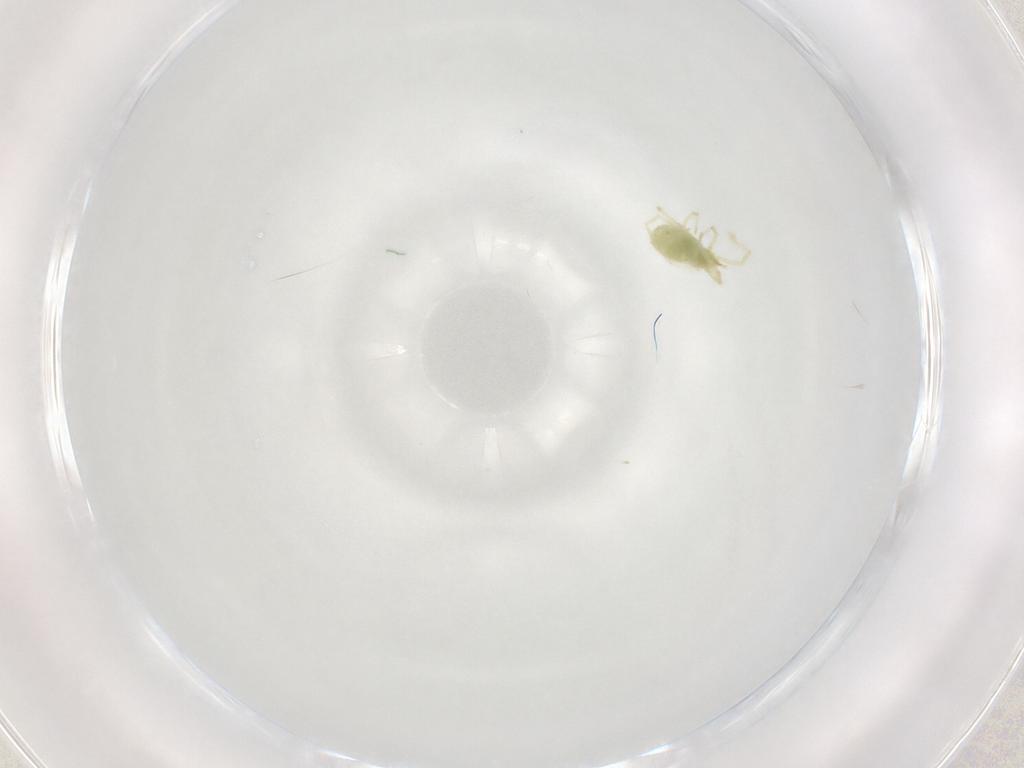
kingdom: Animalia
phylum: Arthropoda
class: Arachnida
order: Trombidiformes
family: Erythraeidae
